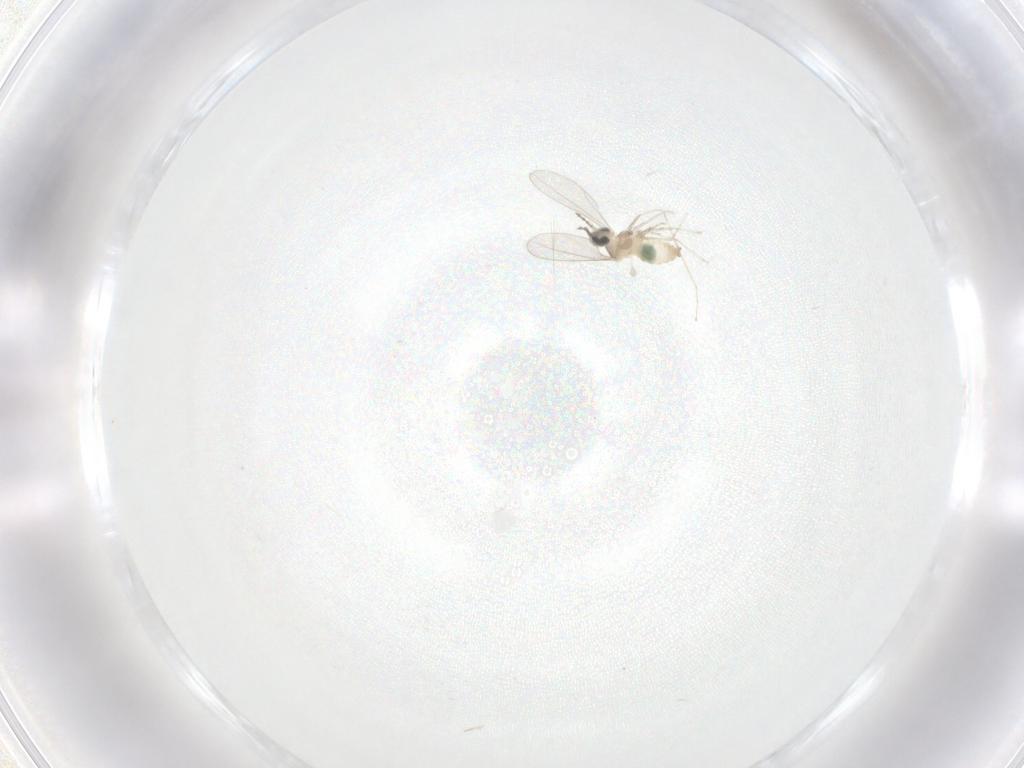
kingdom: Animalia
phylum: Arthropoda
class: Insecta
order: Diptera
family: Cecidomyiidae
